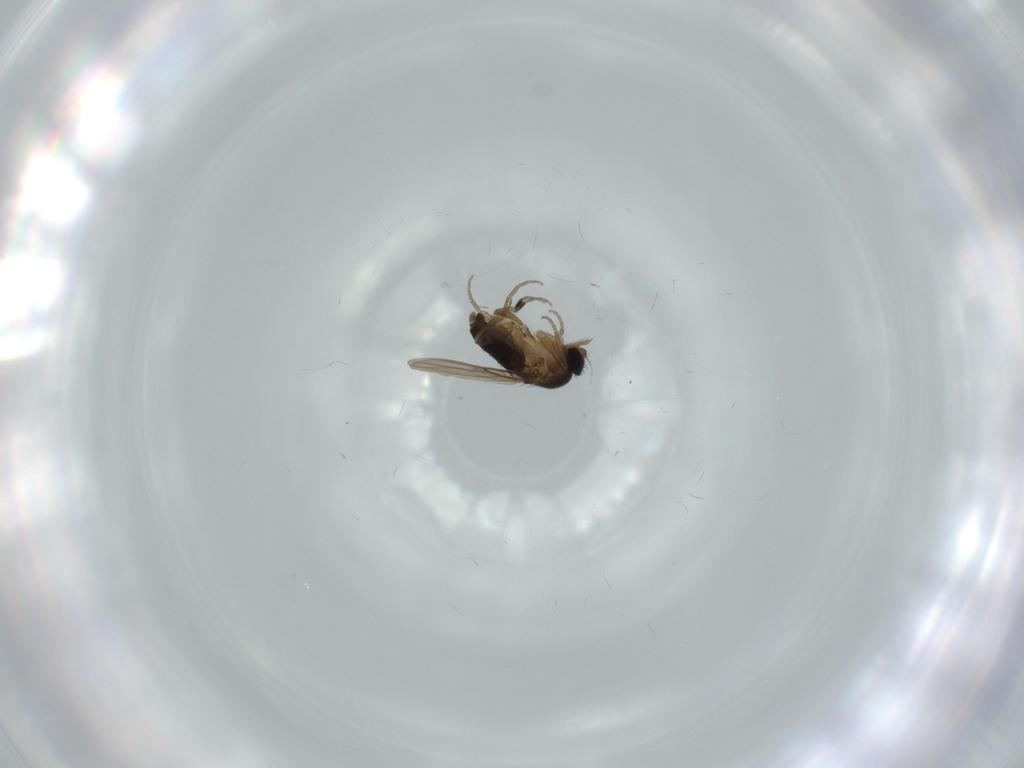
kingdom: Animalia
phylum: Arthropoda
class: Insecta
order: Diptera
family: Phoridae
